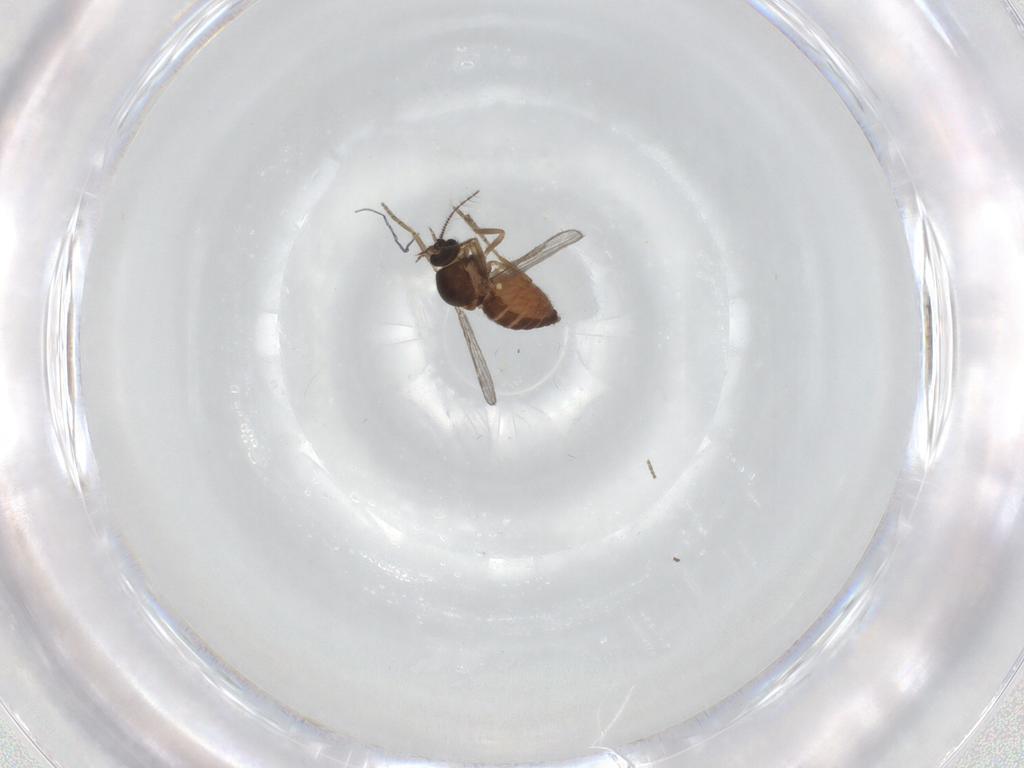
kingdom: Animalia
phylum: Arthropoda
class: Insecta
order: Diptera
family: Ceratopogonidae
